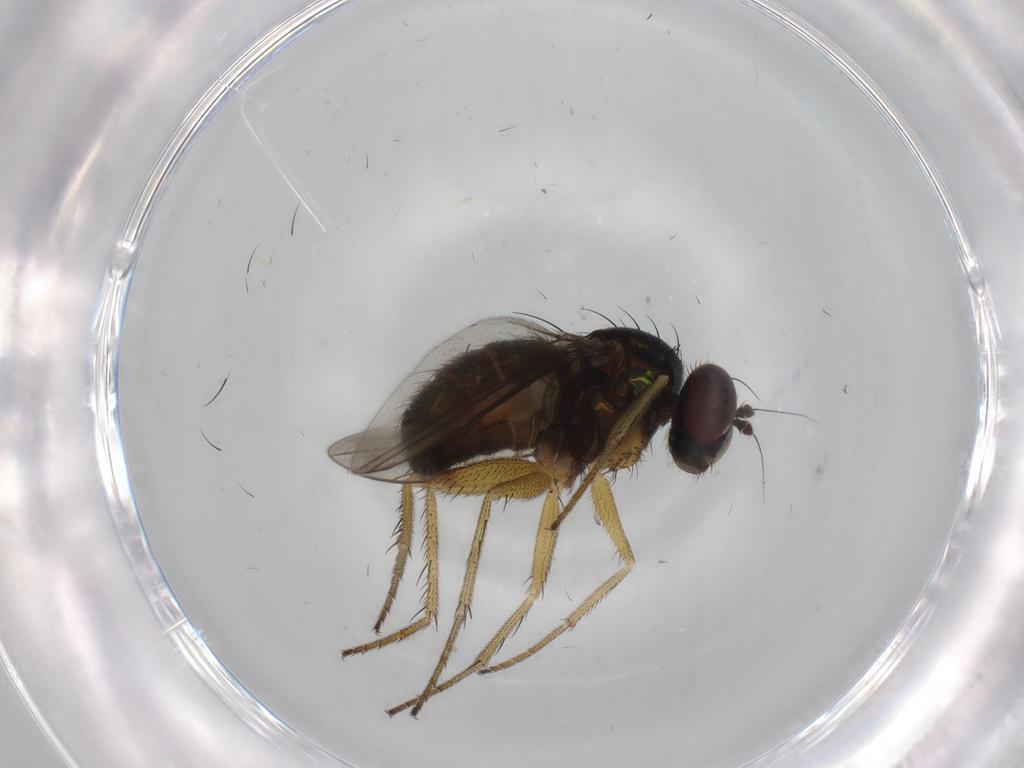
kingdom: Animalia
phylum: Arthropoda
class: Insecta
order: Diptera
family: Dolichopodidae
